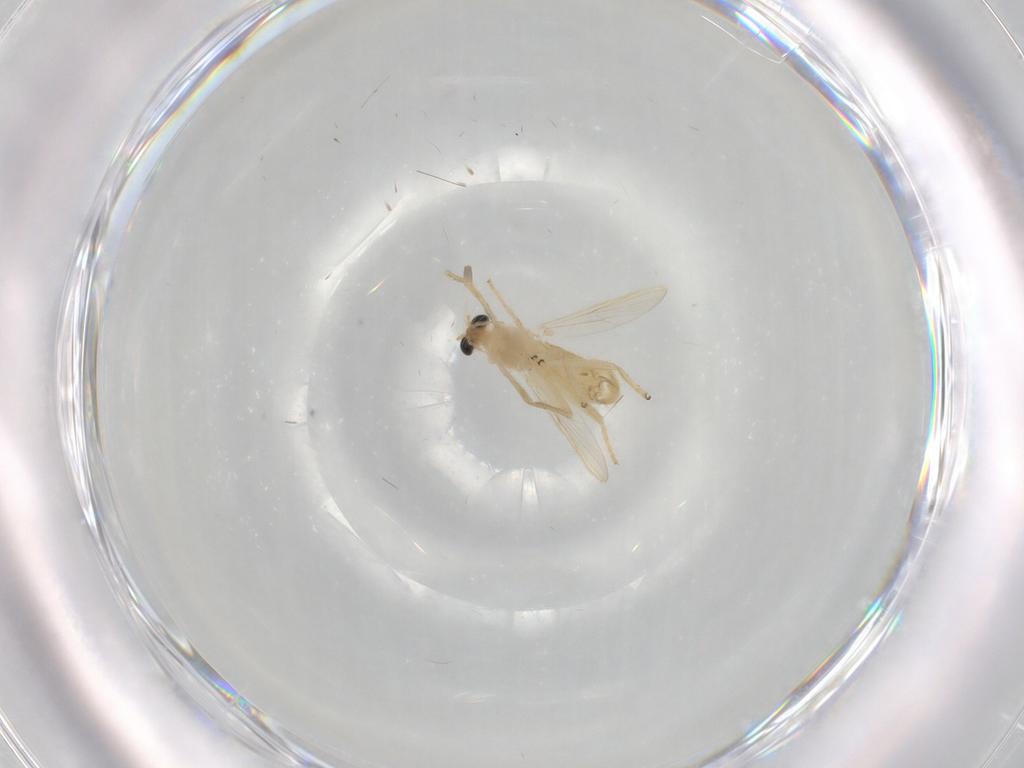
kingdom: Animalia
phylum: Arthropoda
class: Insecta
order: Diptera
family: Chironomidae
